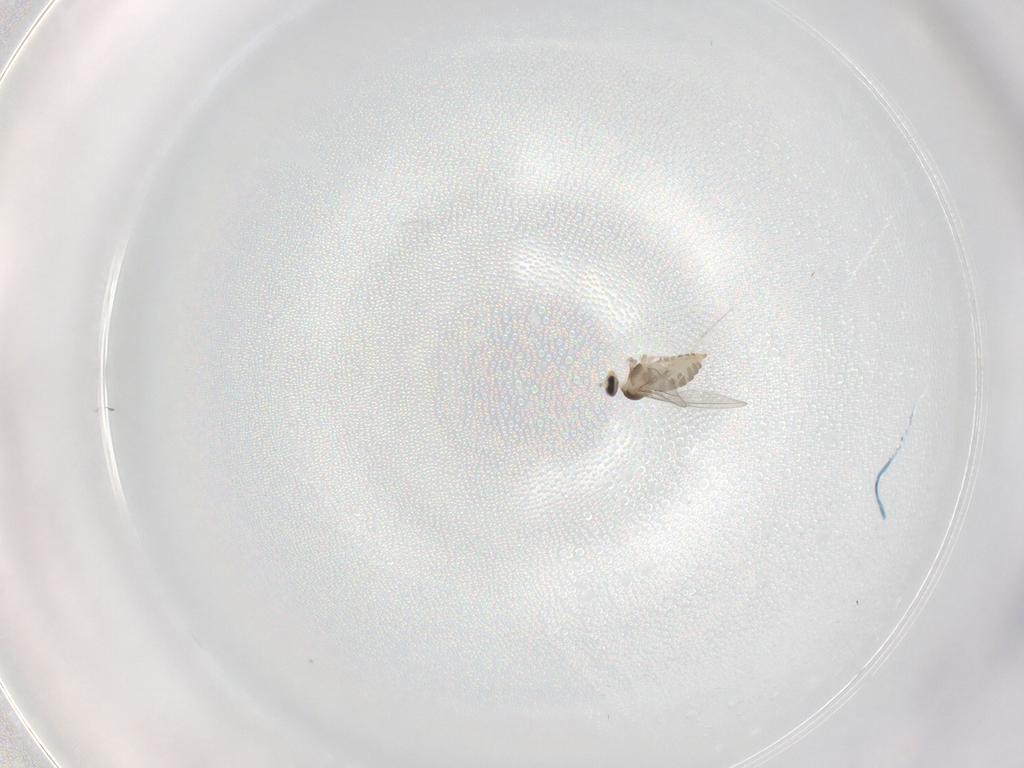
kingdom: Animalia
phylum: Arthropoda
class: Insecta
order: Diptera
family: Cecidomyiidae
